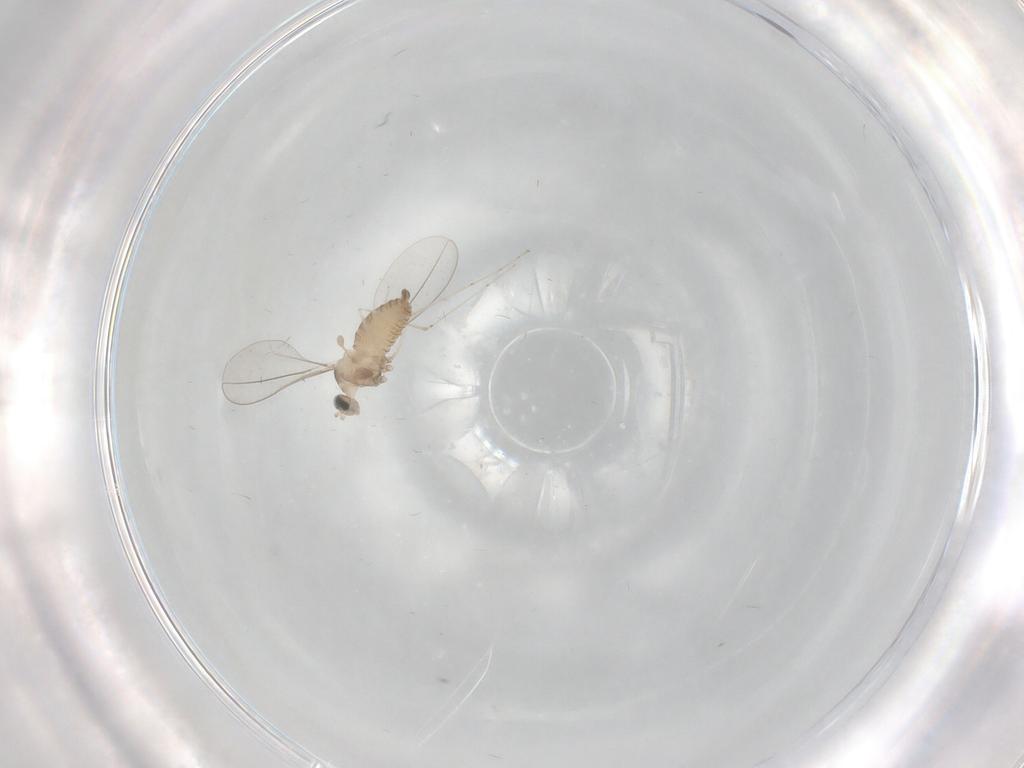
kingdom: Animalia
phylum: Arthropoda
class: Insecta
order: Diptera
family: Cecidomyiidae
